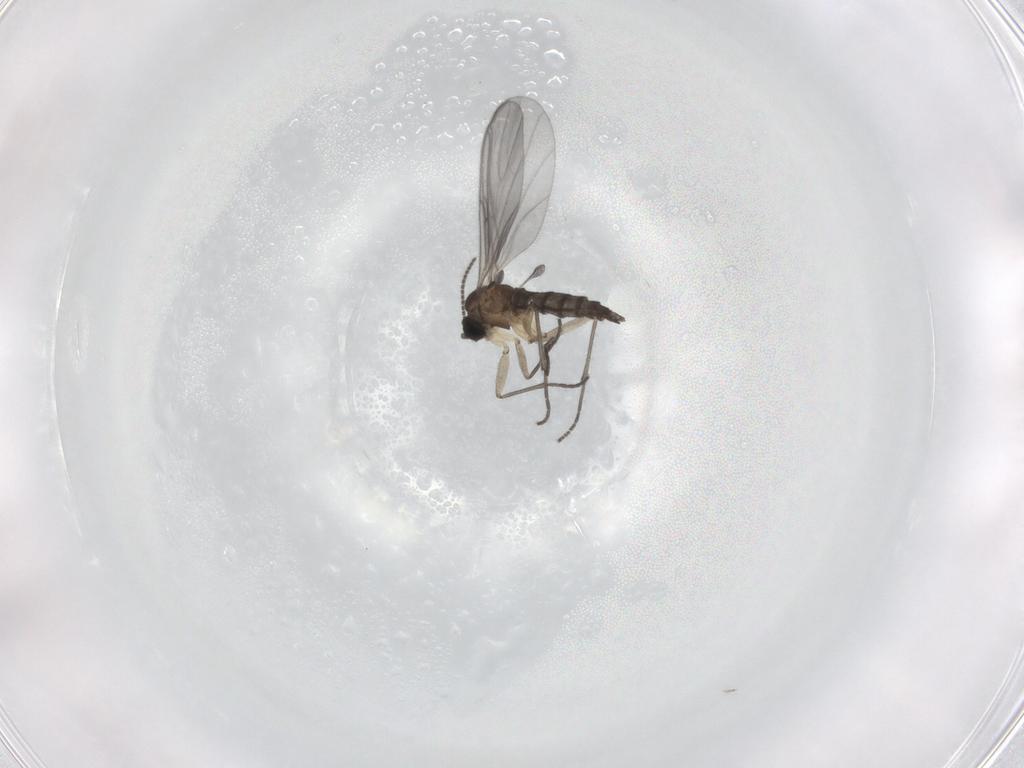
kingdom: Animalia
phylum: Arthropoda
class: Insecta
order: Diptera
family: Sciaridae
